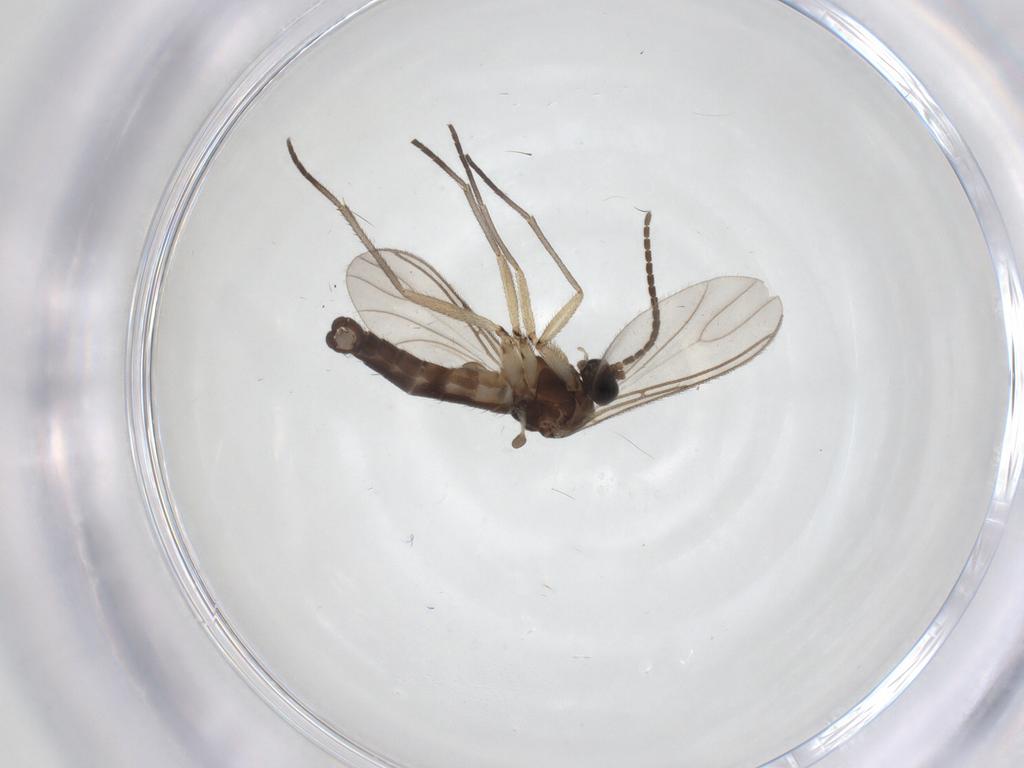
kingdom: Animalia
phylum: Arthropoda
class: Insecta
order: Diptera
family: Sciaridae
